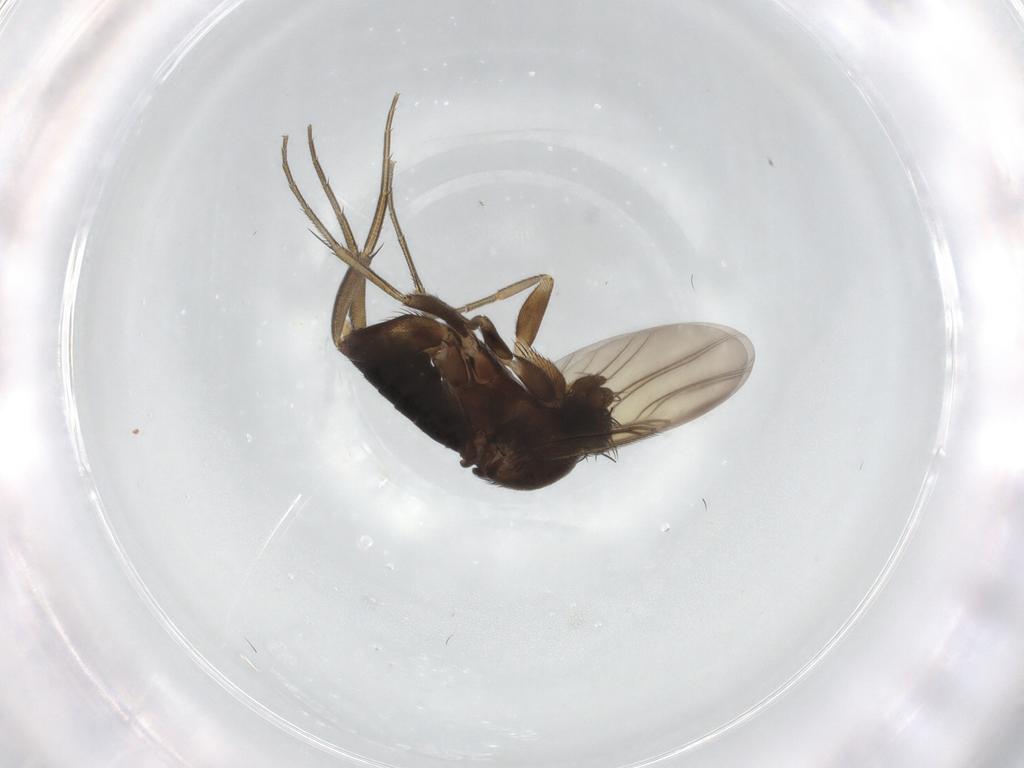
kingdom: Animalia
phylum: Arthropoda
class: Insecta
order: Diptera
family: Phoridae
